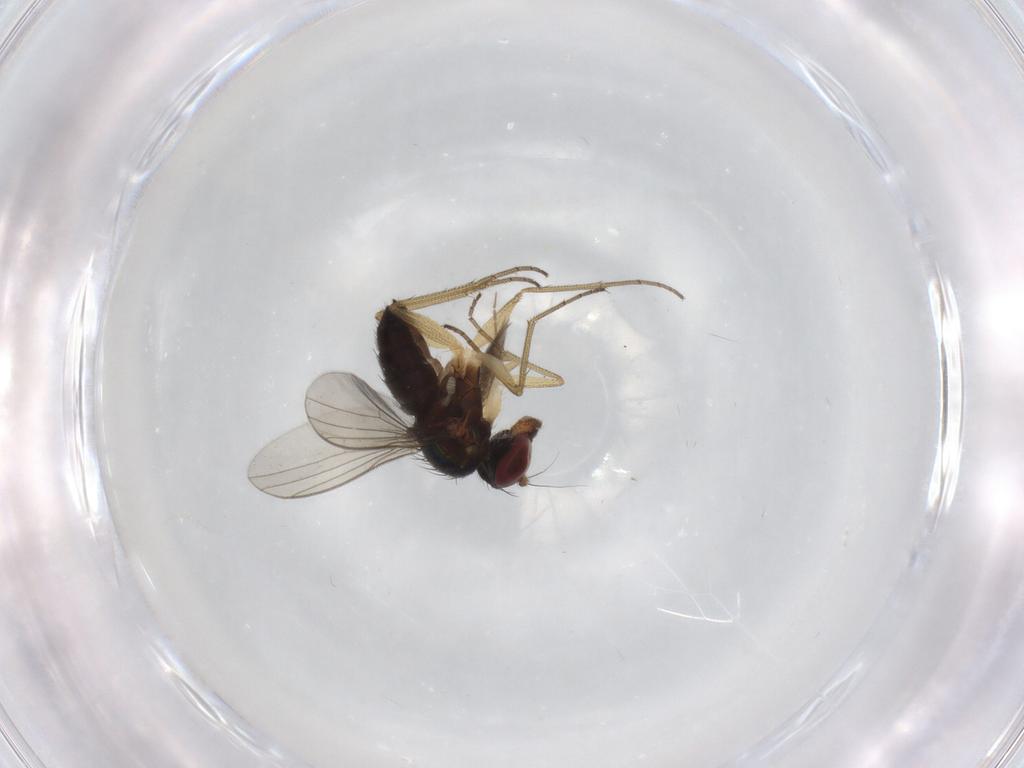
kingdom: Animalia
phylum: Arthropoda
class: Insecta
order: Diptera
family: Dolichopodidae
